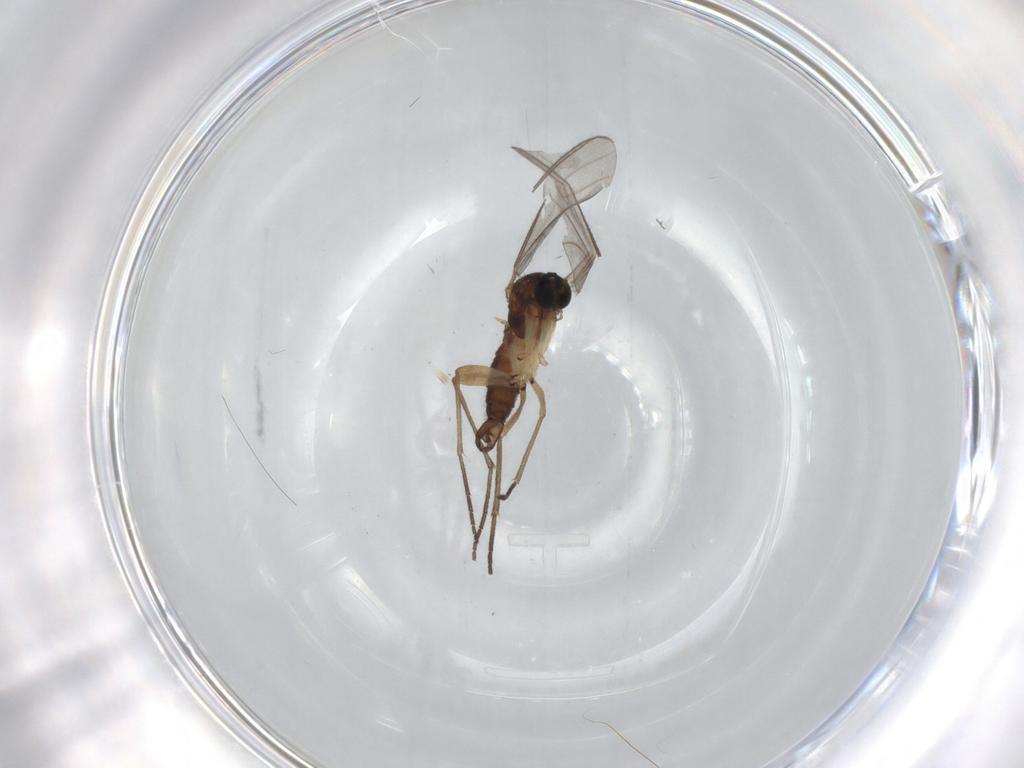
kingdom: Animalia
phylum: Arthropoda
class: Insecta
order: Diptera
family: Sciaridae
